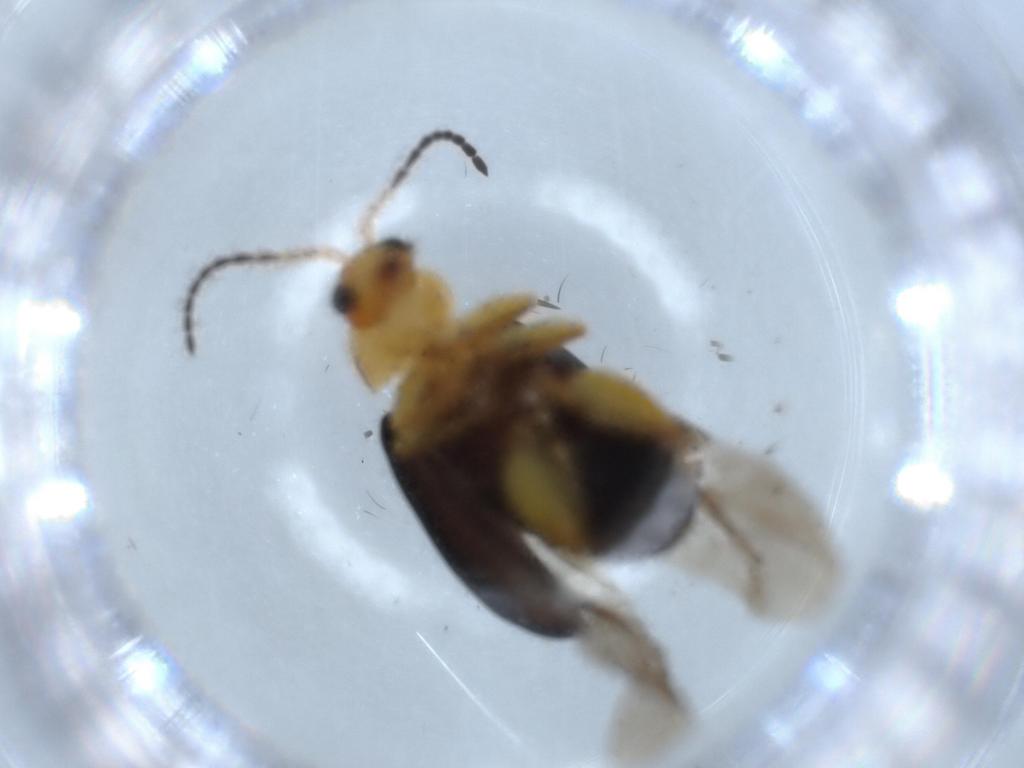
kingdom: Animalia
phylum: Arthropoda
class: Insecta
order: Coleoptera
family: Chrysomelidae
